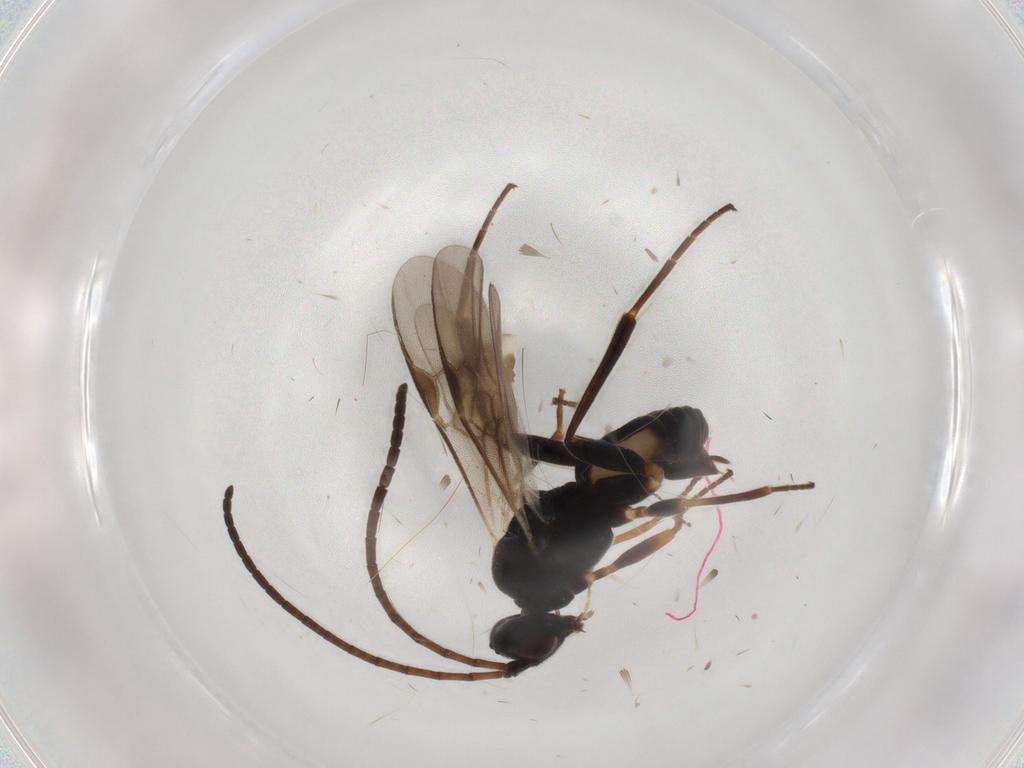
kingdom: Animalia
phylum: Arthropoda
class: Insecta
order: Hymenoptera
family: Braconidae
